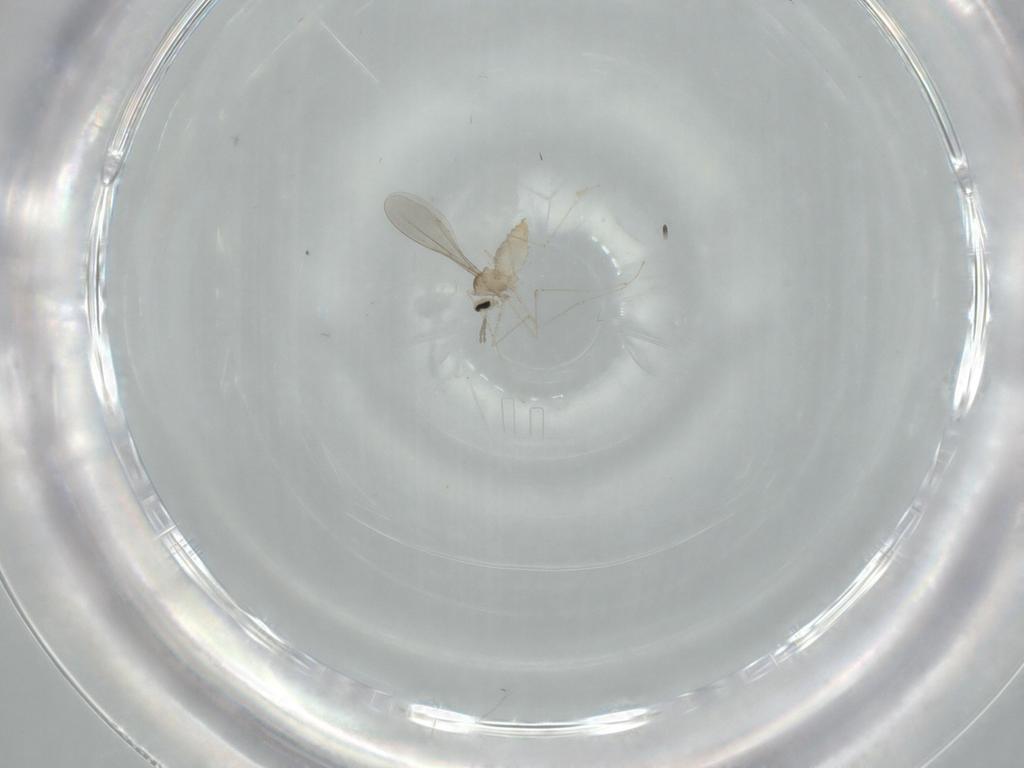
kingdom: Animalia
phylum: Arthropoda
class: Insecta
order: Diptera
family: Cecidomyiidae
